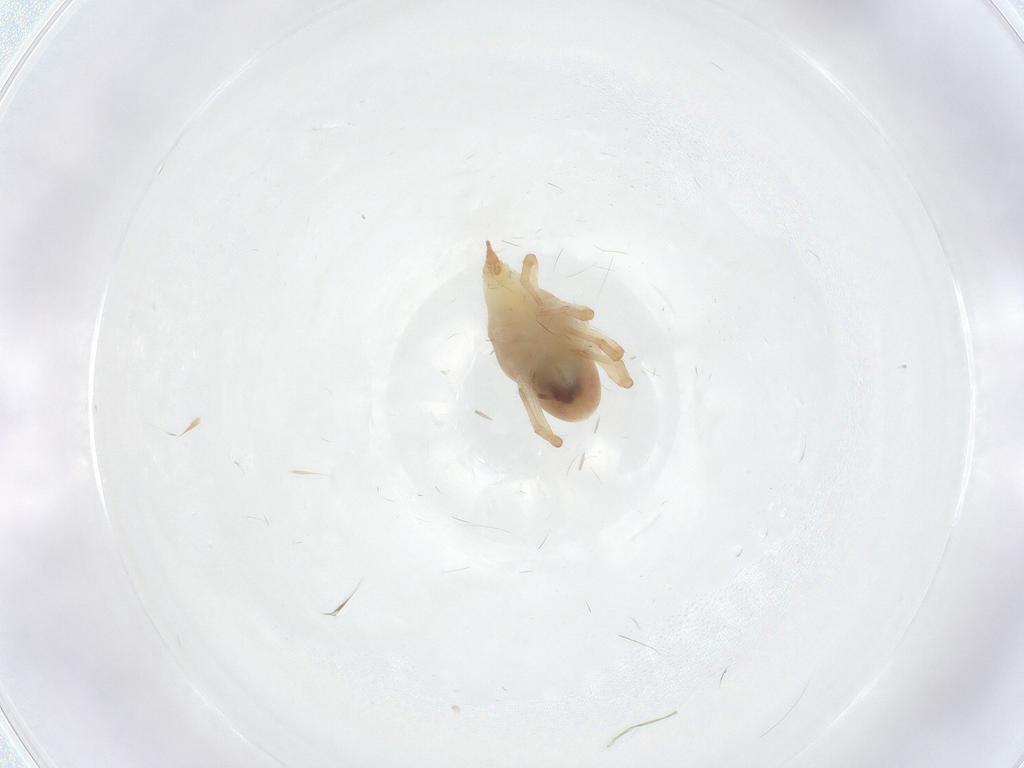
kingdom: Animalia
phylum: Arthropoda
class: Arachnida
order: Trombidiformes
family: Bdellidae
